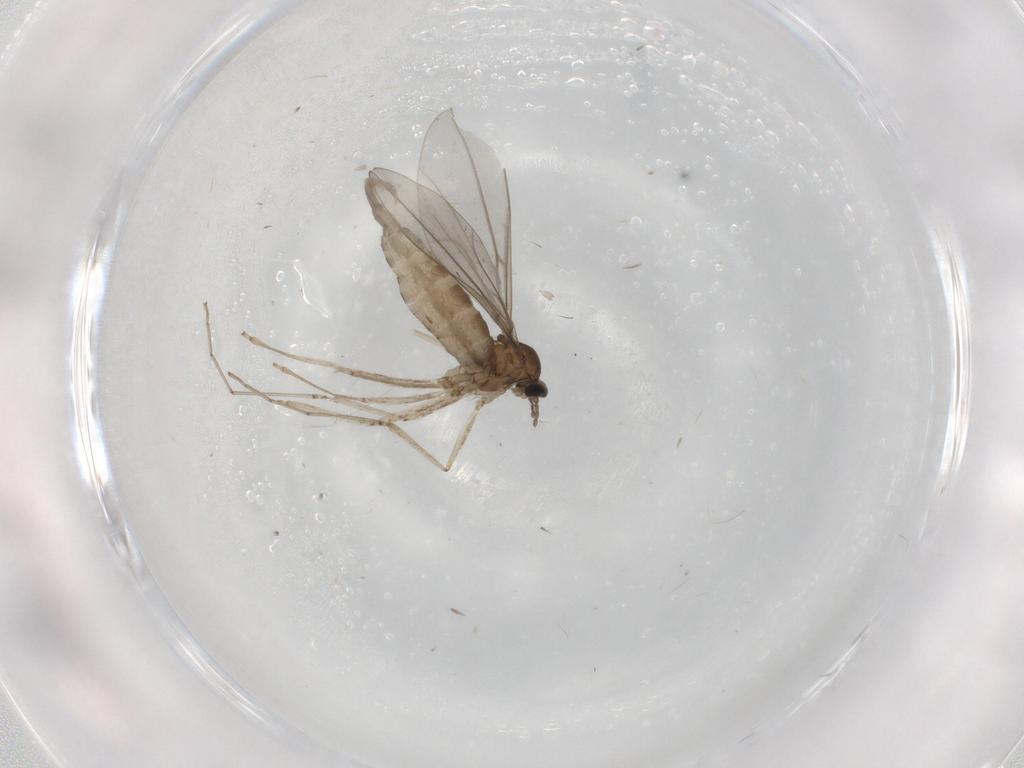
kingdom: Animalia
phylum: Arthropoda
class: Insecta
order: Diptera
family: Cecidomyiidae
